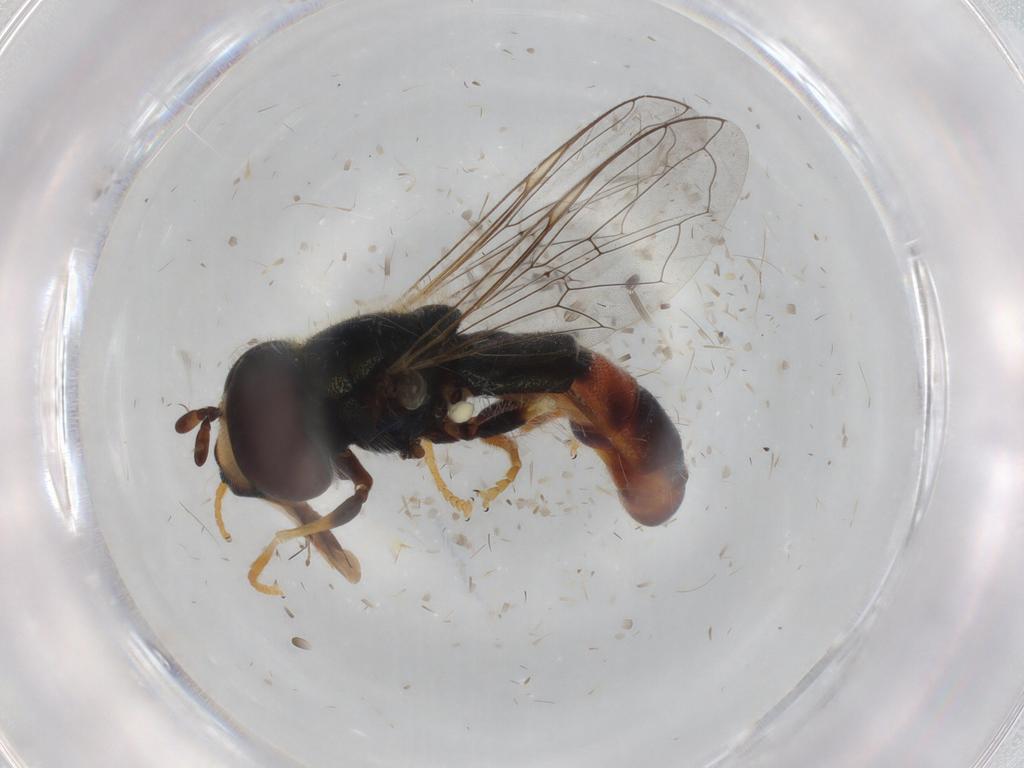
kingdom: Animalia
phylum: Arthropoda
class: Insecta
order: Diptera
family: Syrphidae
